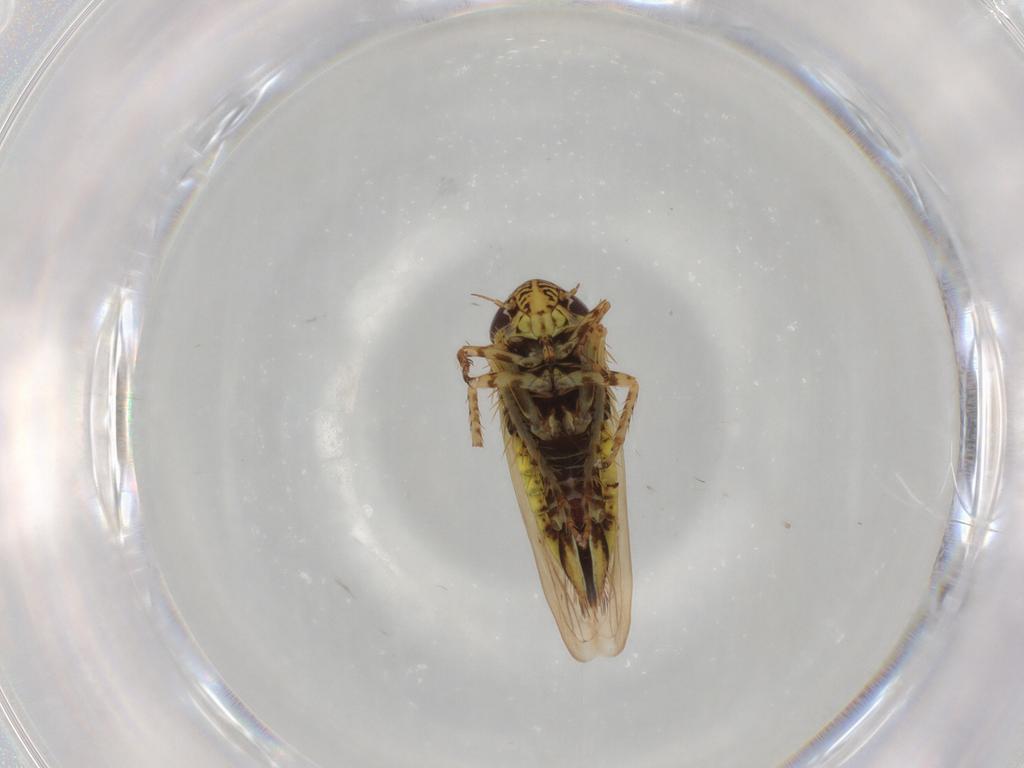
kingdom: Animalia
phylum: Arthropoda
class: Insecta
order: Hemiptera
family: Cicadellidae
